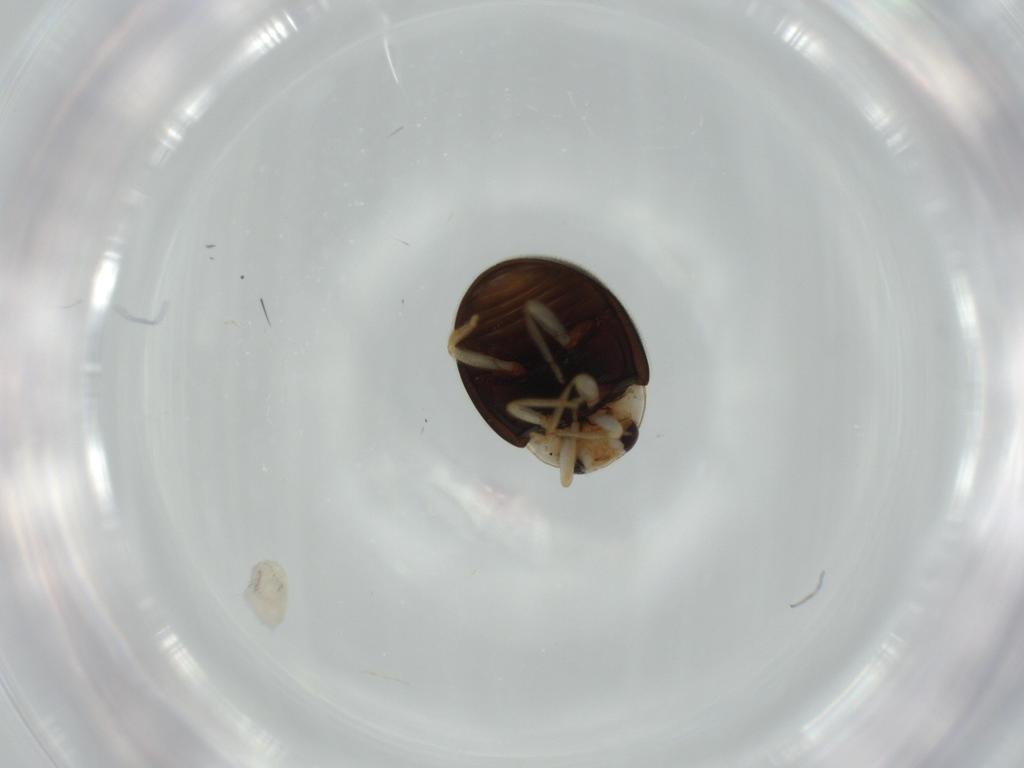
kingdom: Animalia
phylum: Arthropoda
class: Insecta
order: Coleoptera
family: Coccinellidae
